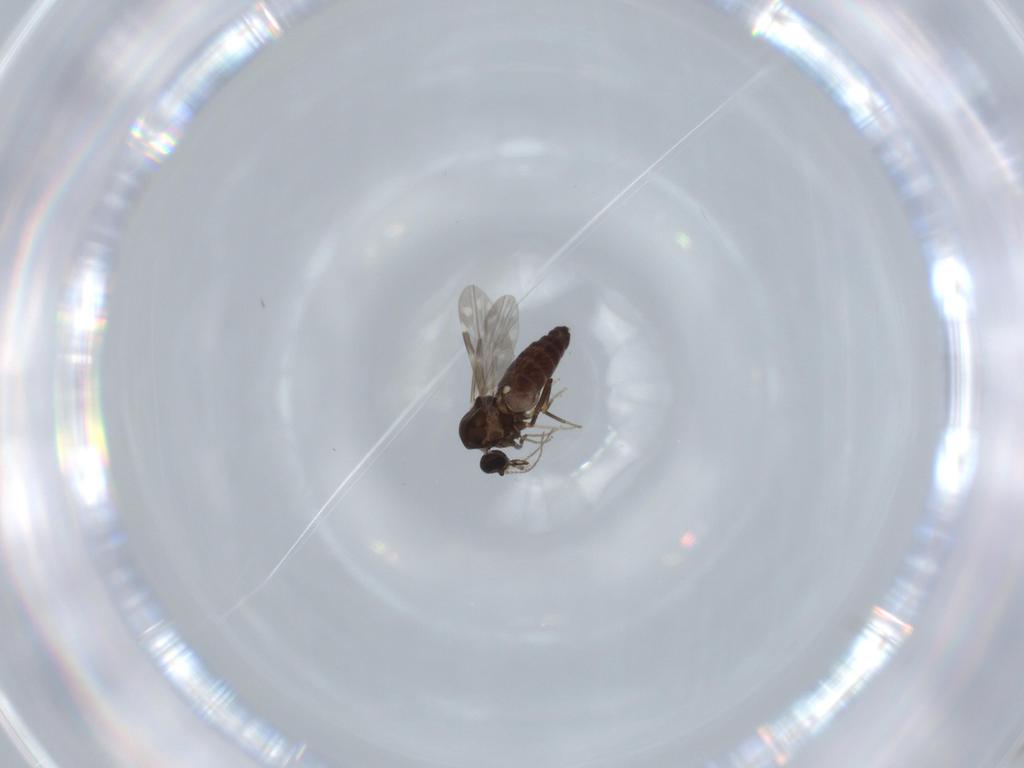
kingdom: Animalia
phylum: Arthropoda
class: Insecta
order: Diptera
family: Ceratopogonidae
